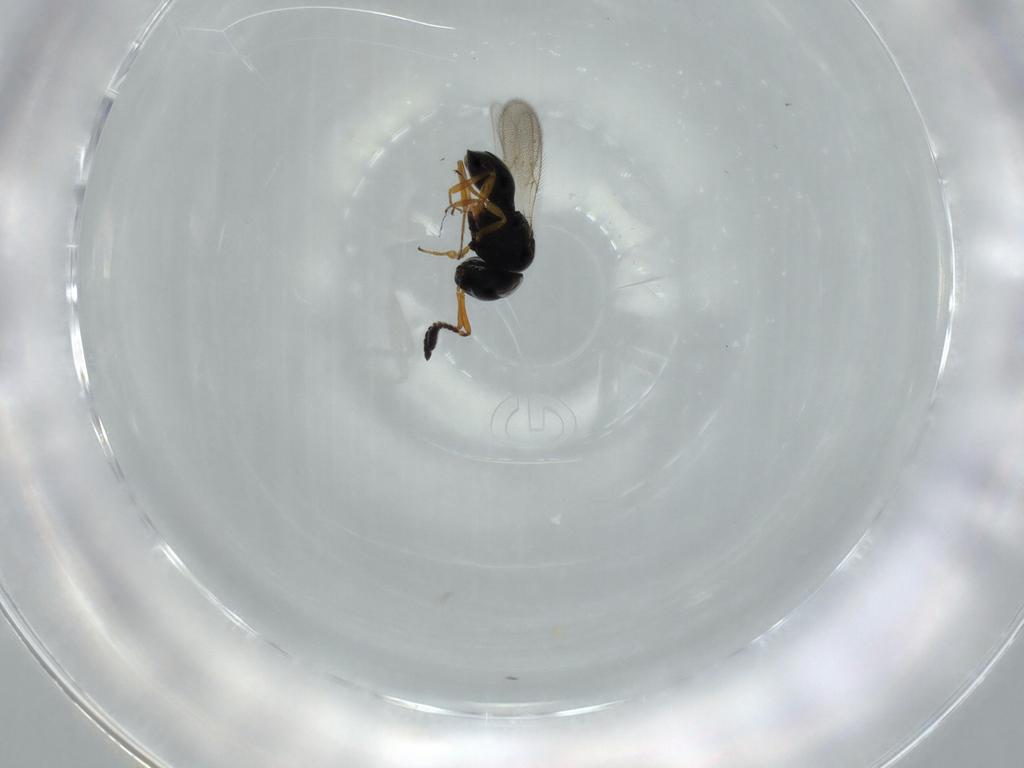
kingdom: Animalia
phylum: Arthropoda
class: Insecta
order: Hymenoptera
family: Scelionidae
